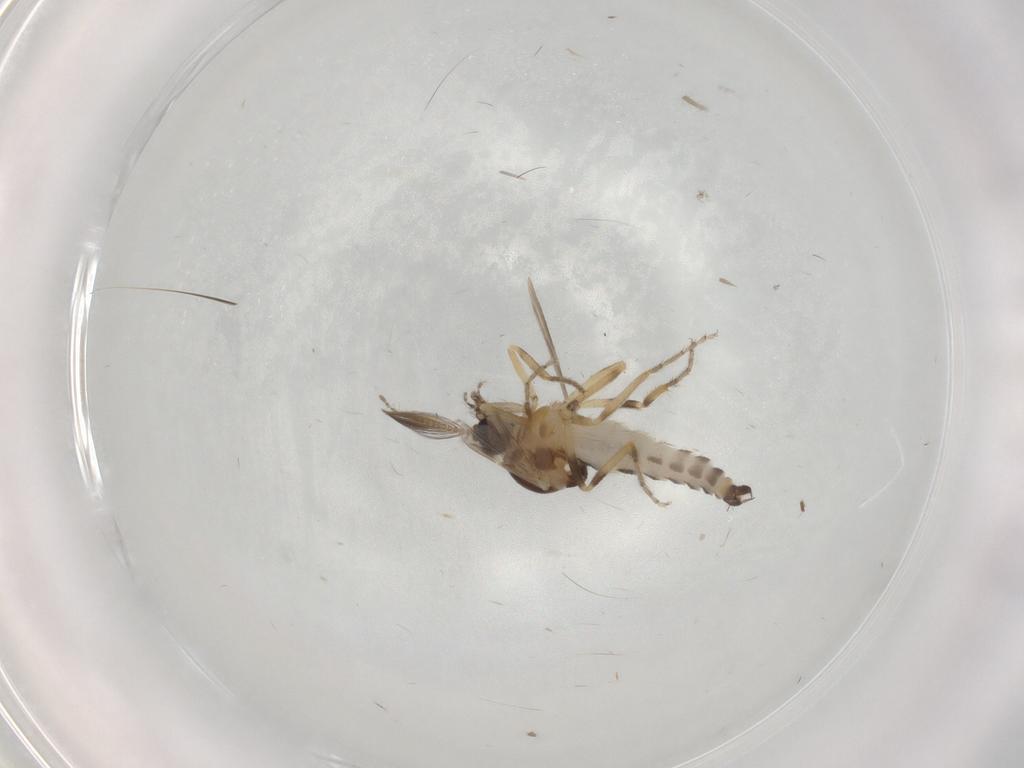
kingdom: Animalia
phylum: Arthropoda
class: Insecta
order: Diptera
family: Ceratopogonidae
